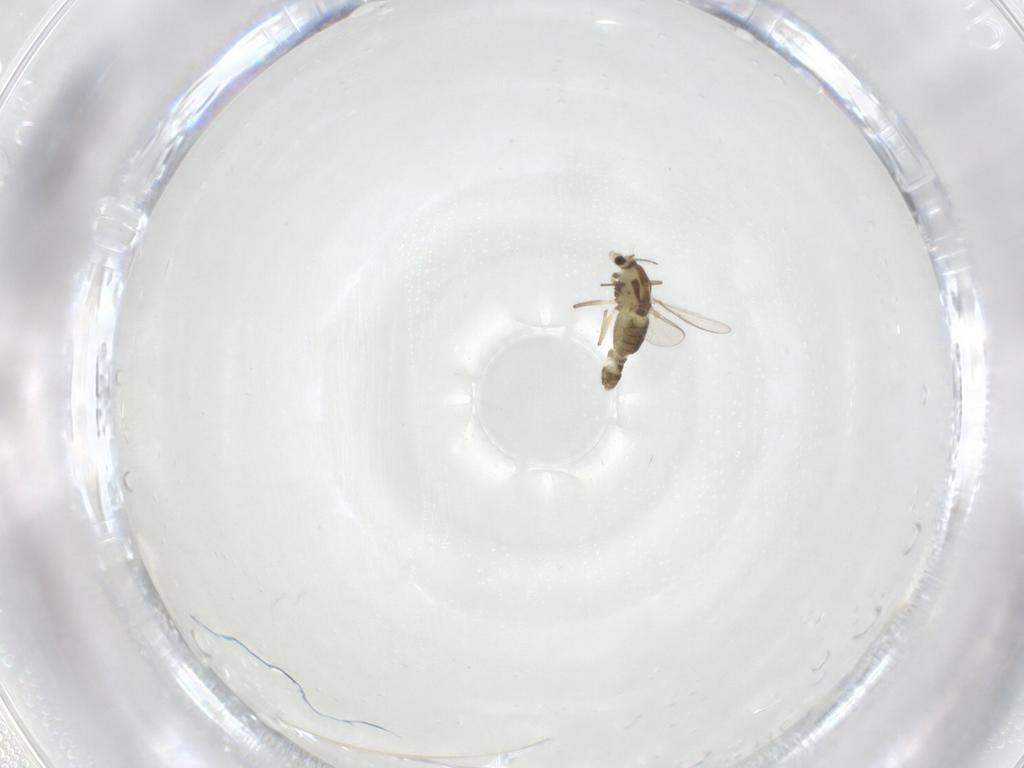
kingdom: Animalia
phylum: Arthropoda
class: Insecta
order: Diptera
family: Chironomidae
